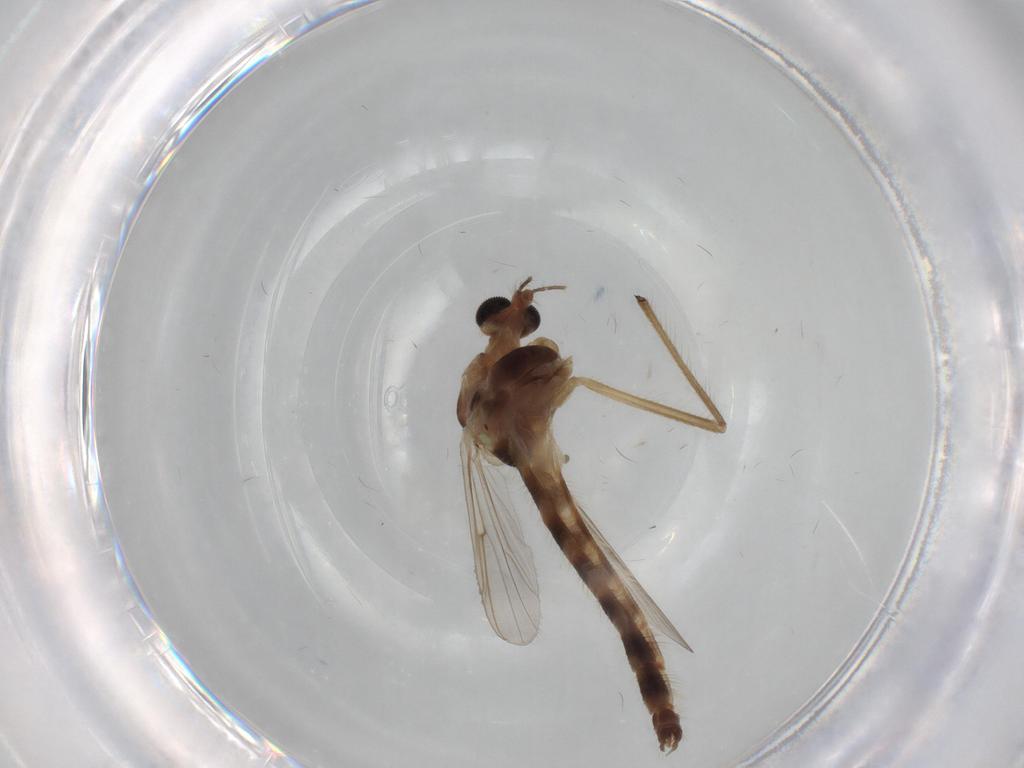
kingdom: Animalia
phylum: Arthropoda
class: Insecta
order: Diptera
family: Chironomidae
